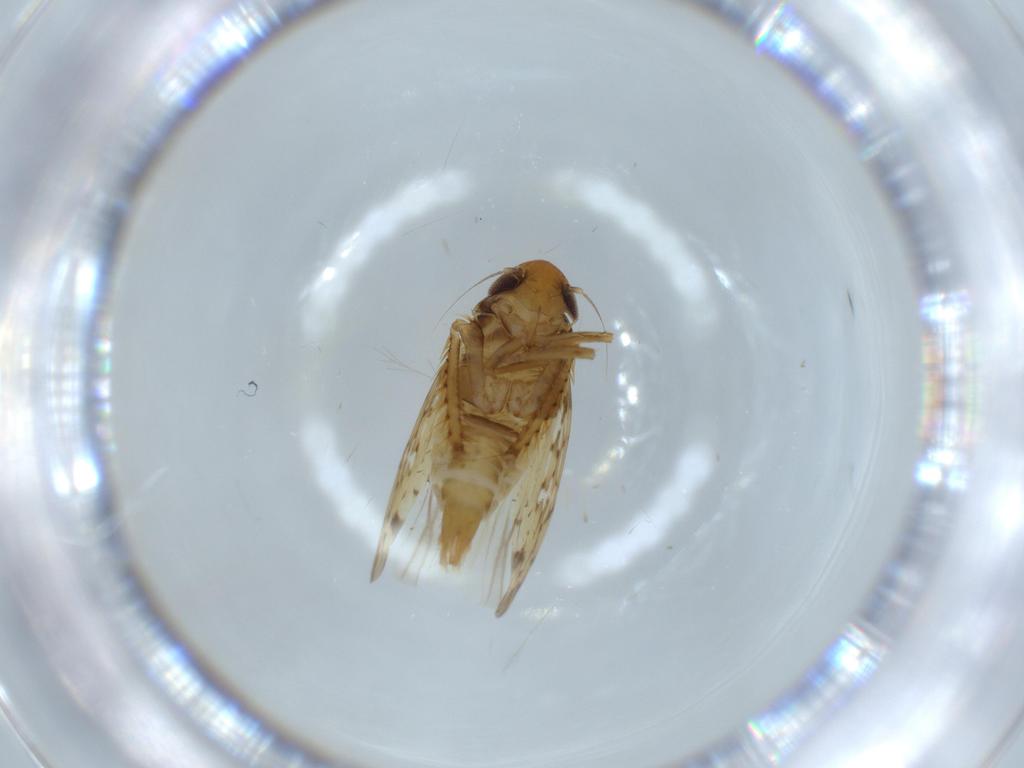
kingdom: Animalia
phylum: Arthropoda
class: Insecta
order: Hemiptera
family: Cicadellidae
